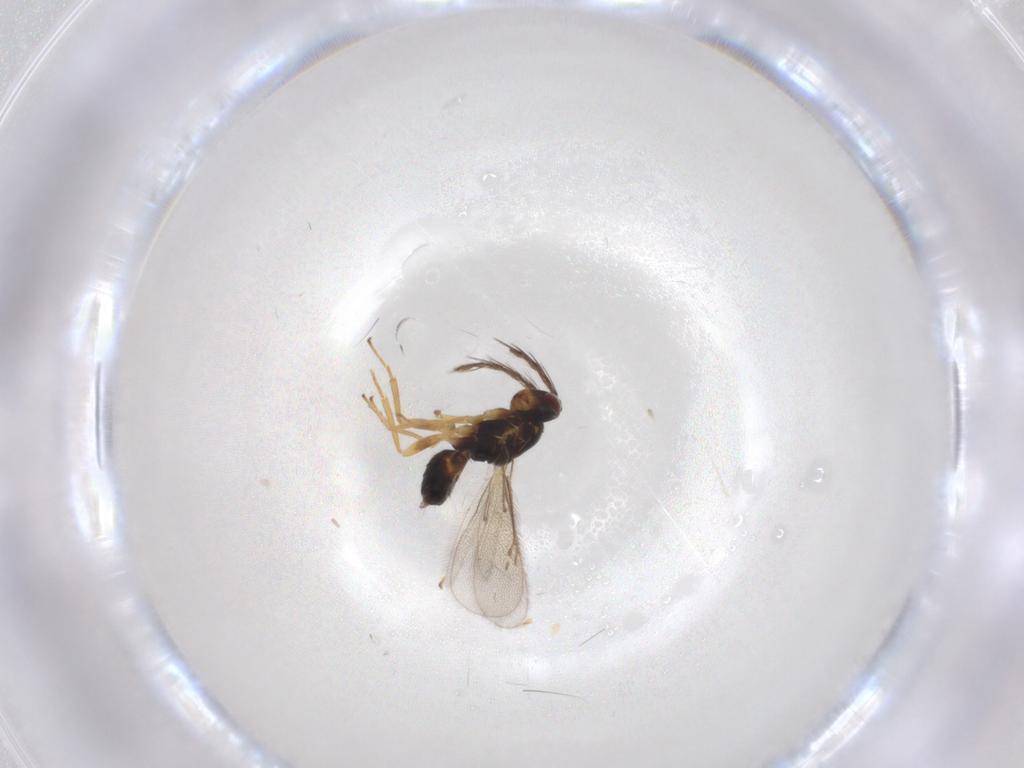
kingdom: Animalia
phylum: Arthropoda
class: Insecta
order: Hymenoptera
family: Eulophidae
